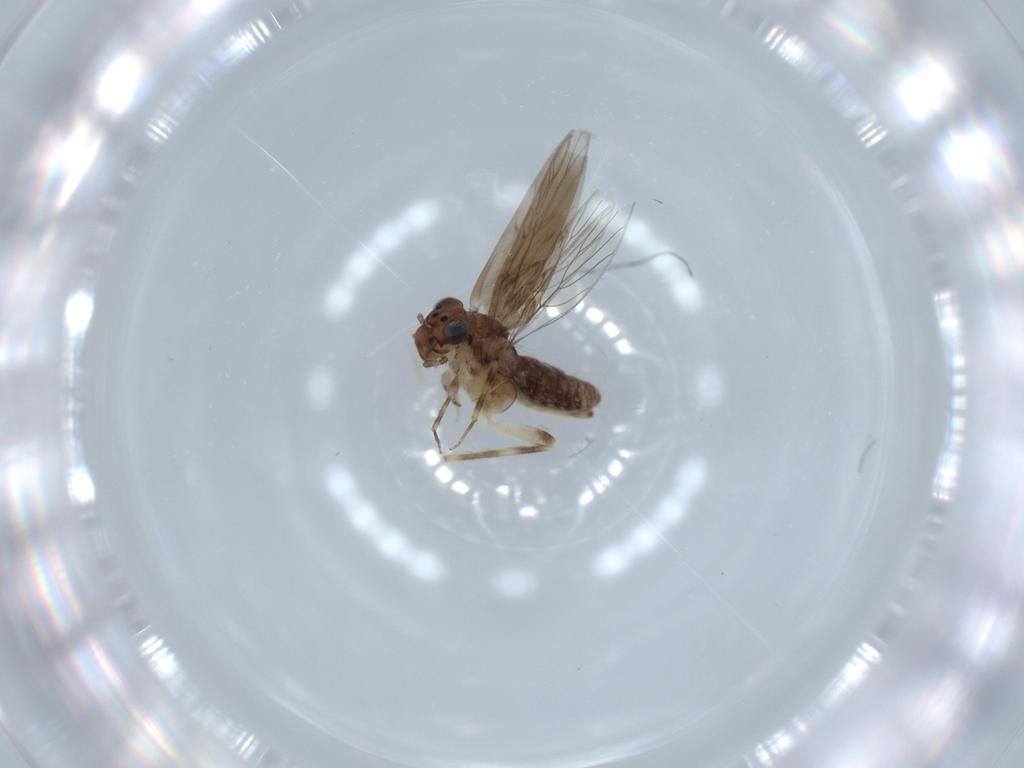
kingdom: Animalia
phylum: Arthropoda
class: Insecta
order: Psocodea
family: Lepidopsocidae
